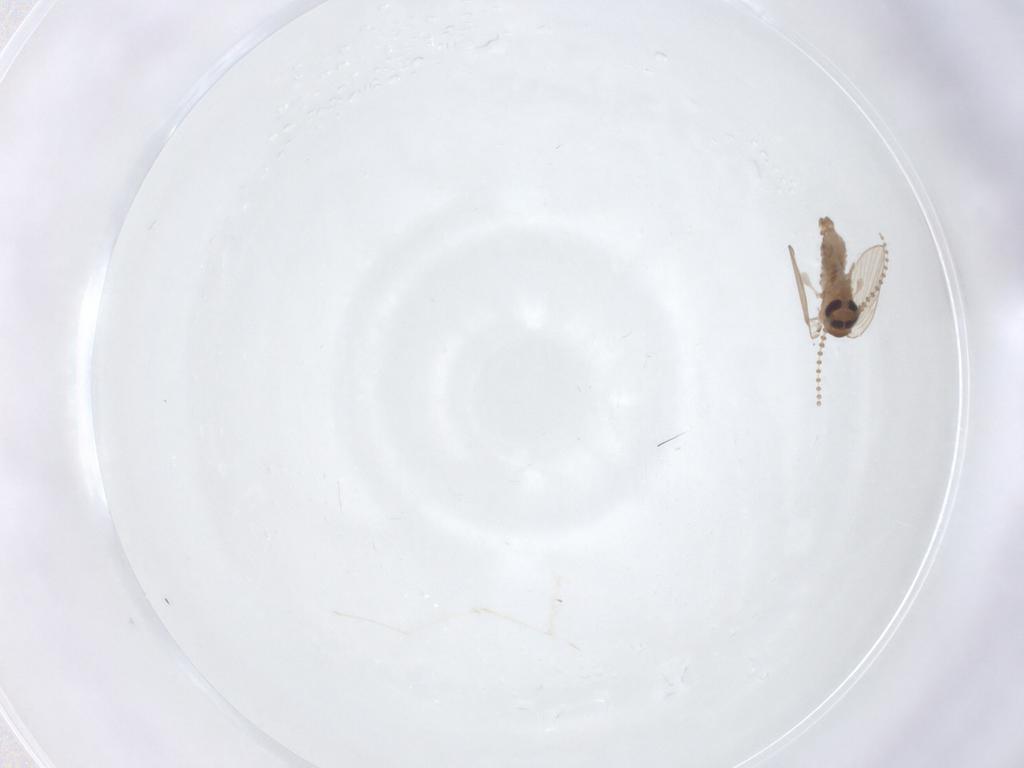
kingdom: Animalia
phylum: Arthropoda
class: Insecta
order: Diptera
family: Psychodidae
